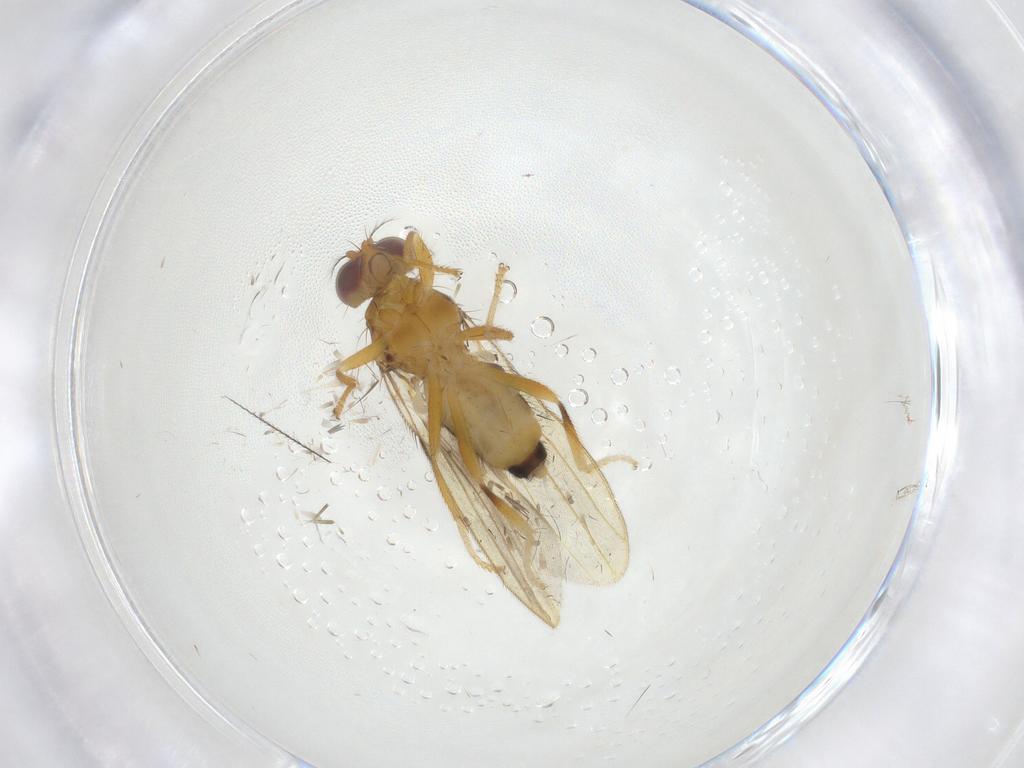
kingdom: Animalia
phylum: Arthropoda
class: Insecta
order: Diptera
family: Periscelididae
